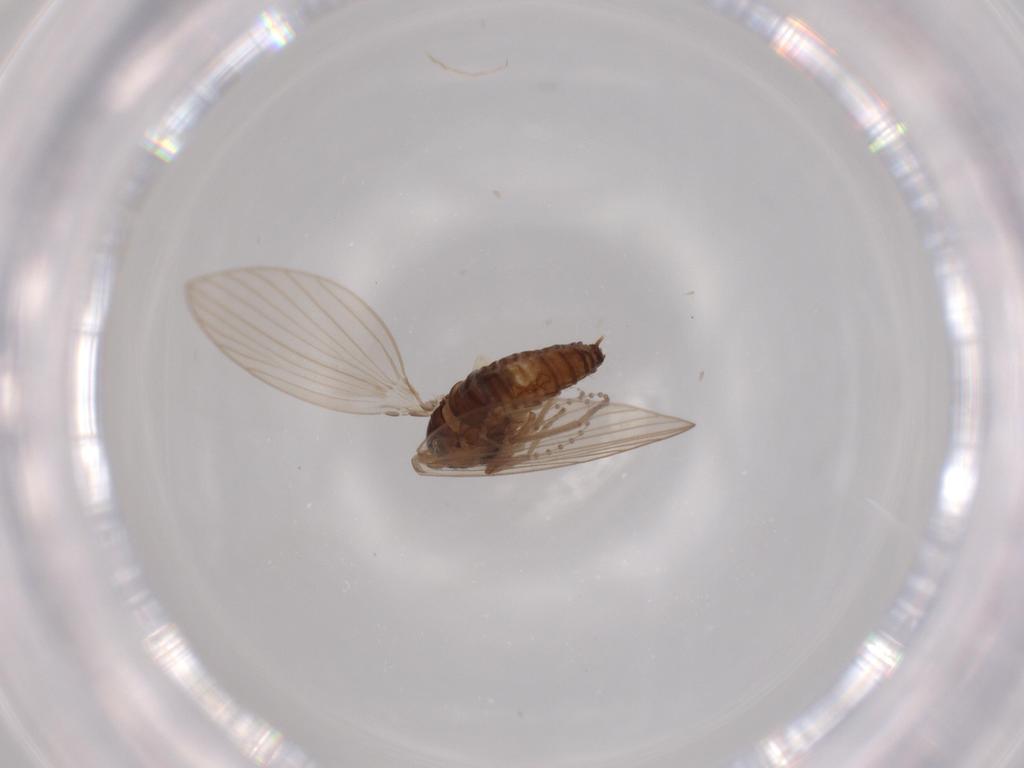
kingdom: Animalia
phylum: Arthropoda
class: Insecta
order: Diptera
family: Psychodidae
